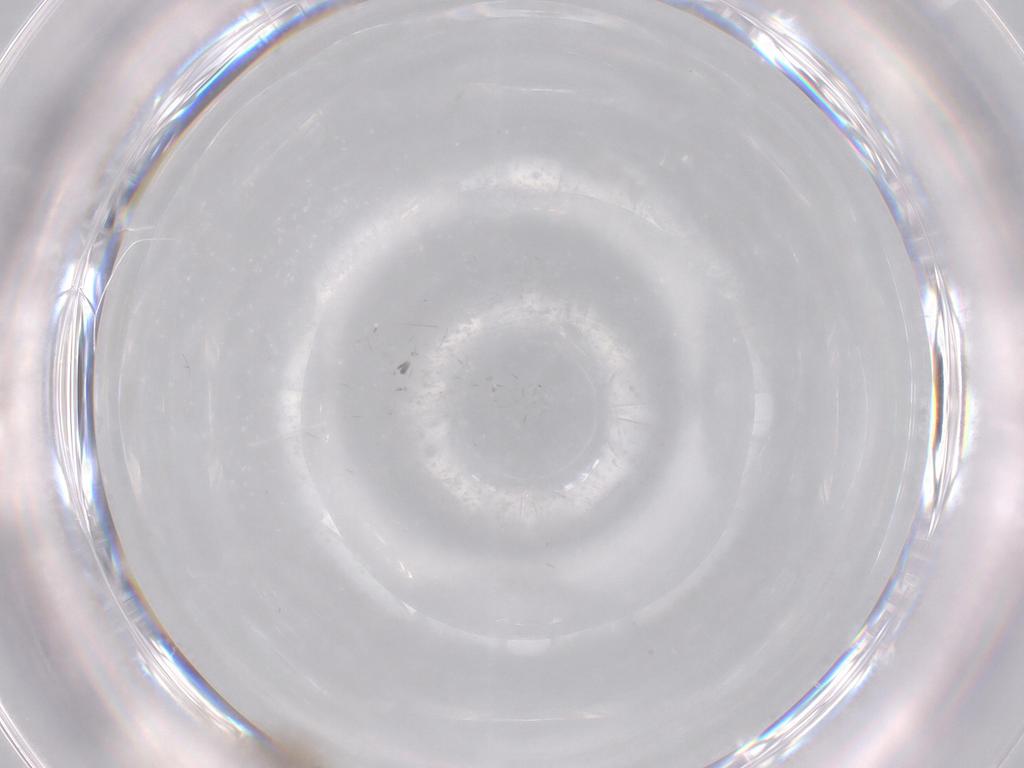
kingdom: Animalia
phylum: Arthropoda
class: Insecta
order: Diptera
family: Cecidomyiidae
